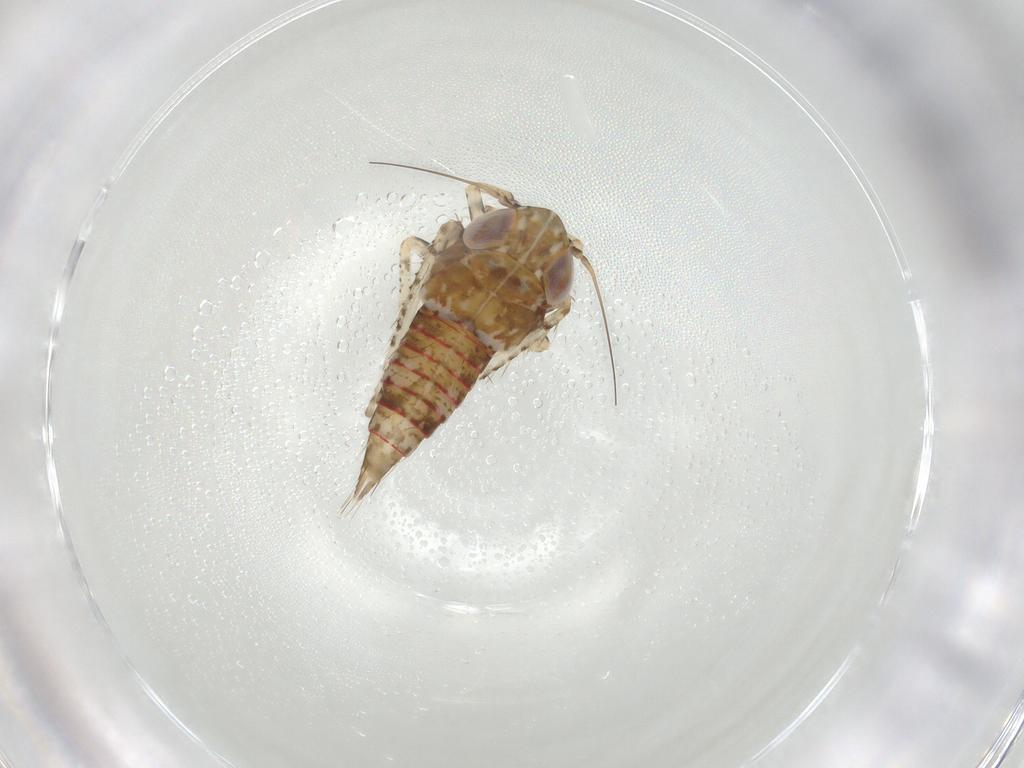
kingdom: Animalia
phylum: Arthropoda
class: Insecta
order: Hemiptera
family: Cicadellidae
